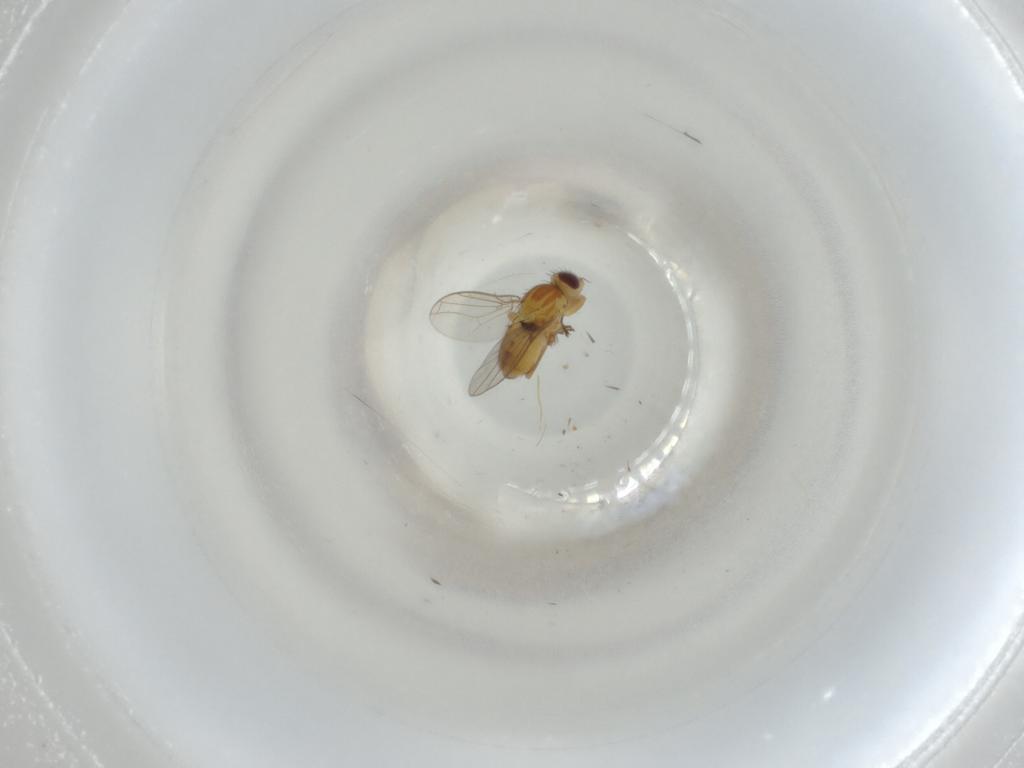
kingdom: Animalia
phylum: Arthropoda
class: Insecta
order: Diptera
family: Chloropidae
